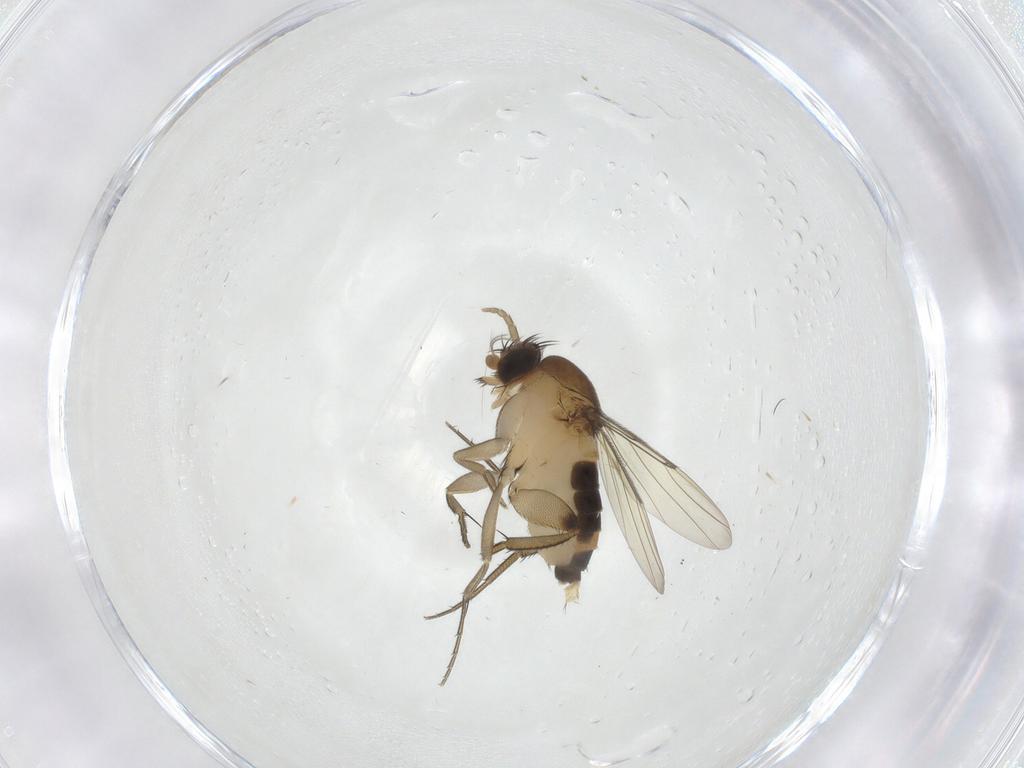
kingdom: Animalia
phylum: Arthropoda
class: Insecta
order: Diptera
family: Phoridae
